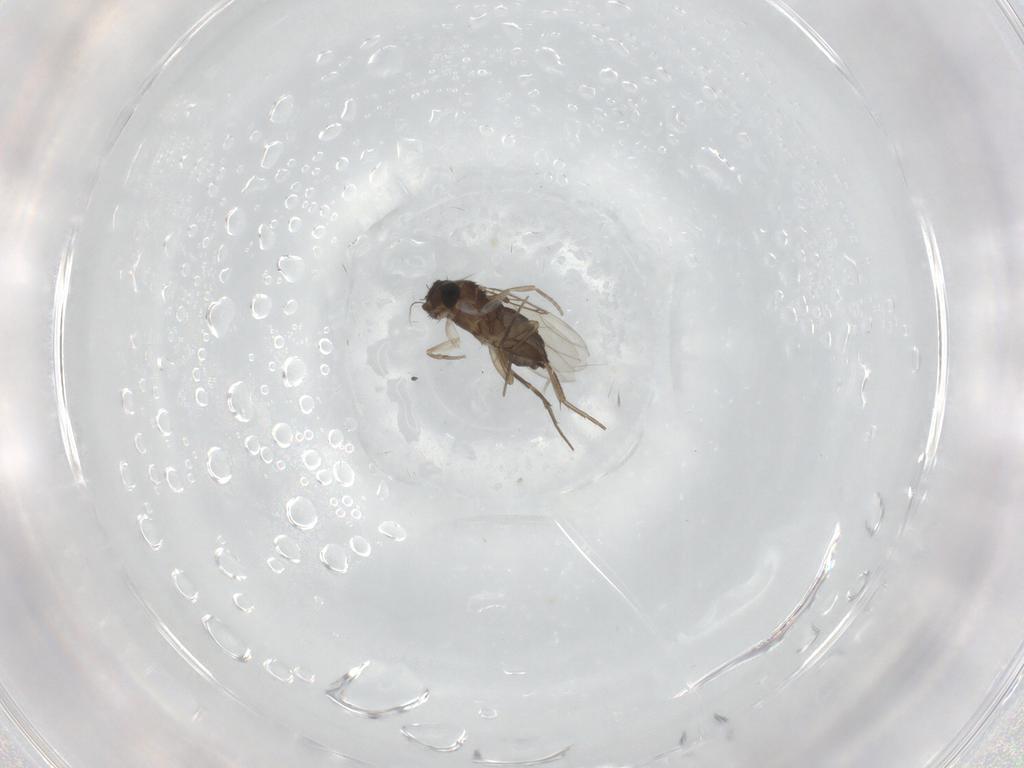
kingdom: Animalia
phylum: Arthropoda
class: Insecta
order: Diptera
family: Phoridae
